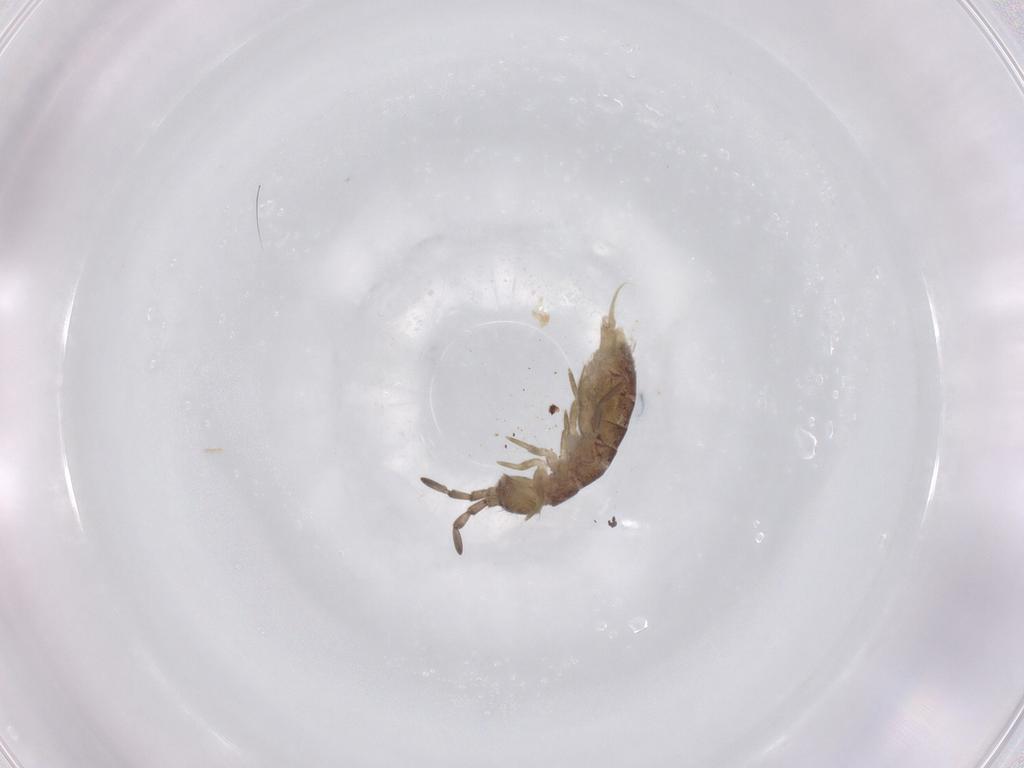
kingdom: Animalia
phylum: Arthropoda
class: Collembola
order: Entomobryomorpha
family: Isotomidae
